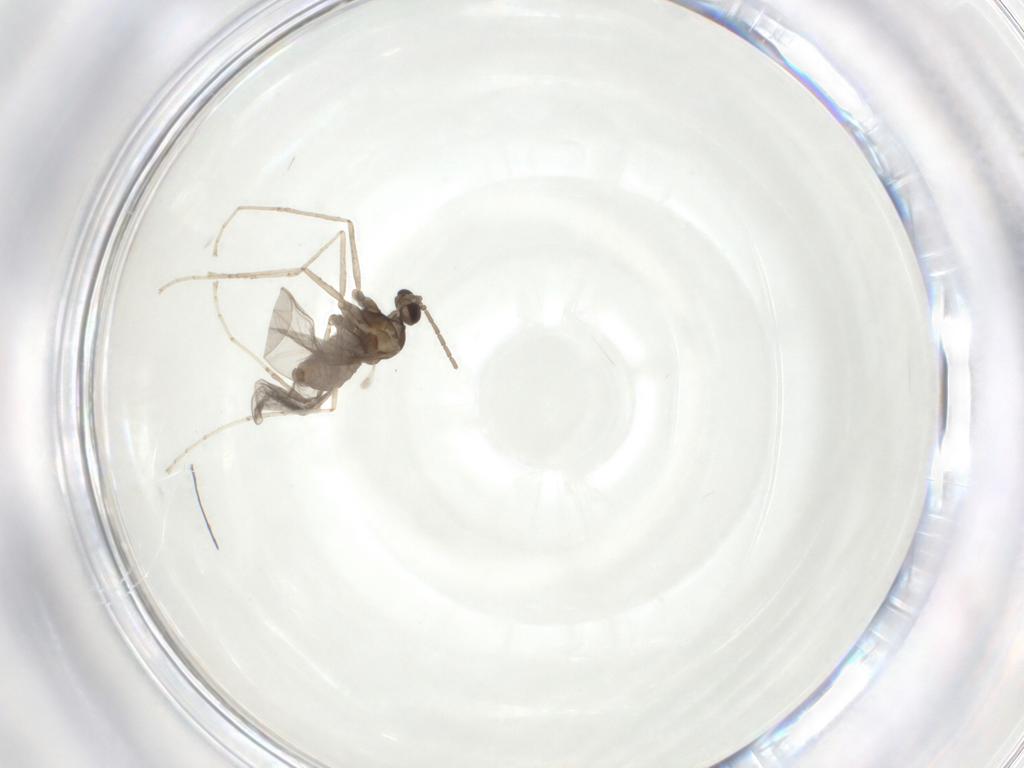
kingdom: Animalia
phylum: Arthropoda
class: Insecta
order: Diptera
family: Cecidomyiidae
